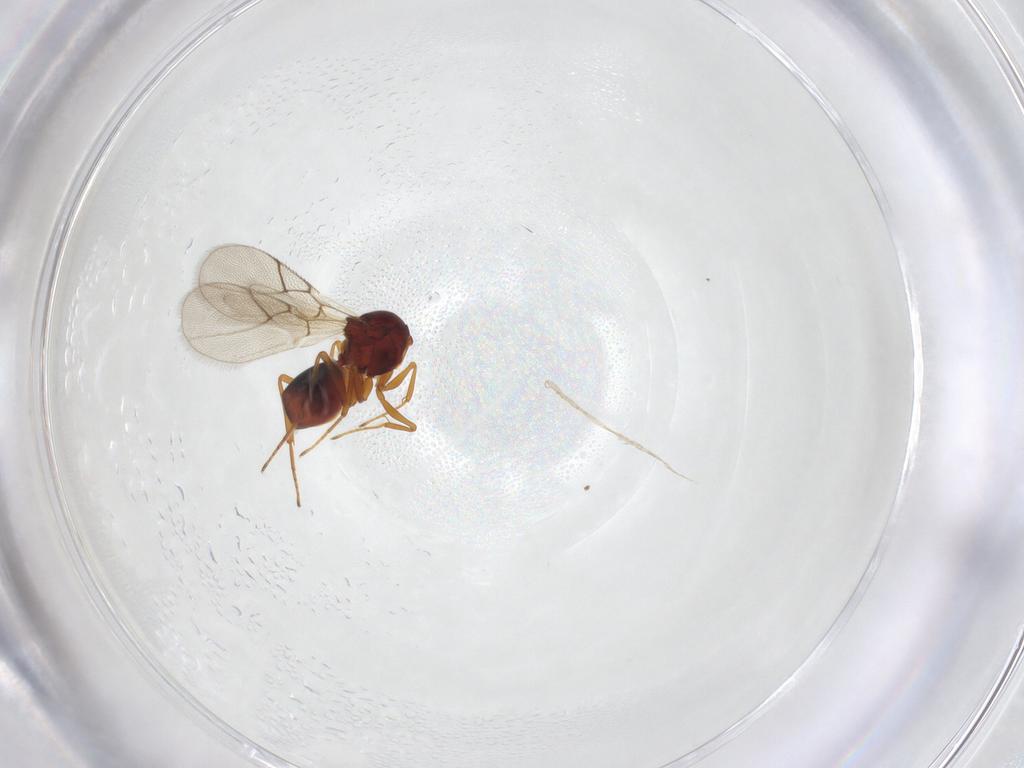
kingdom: Animalia
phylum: Arthropoda
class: Insecta
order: Hymenoptera
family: Figitidae
